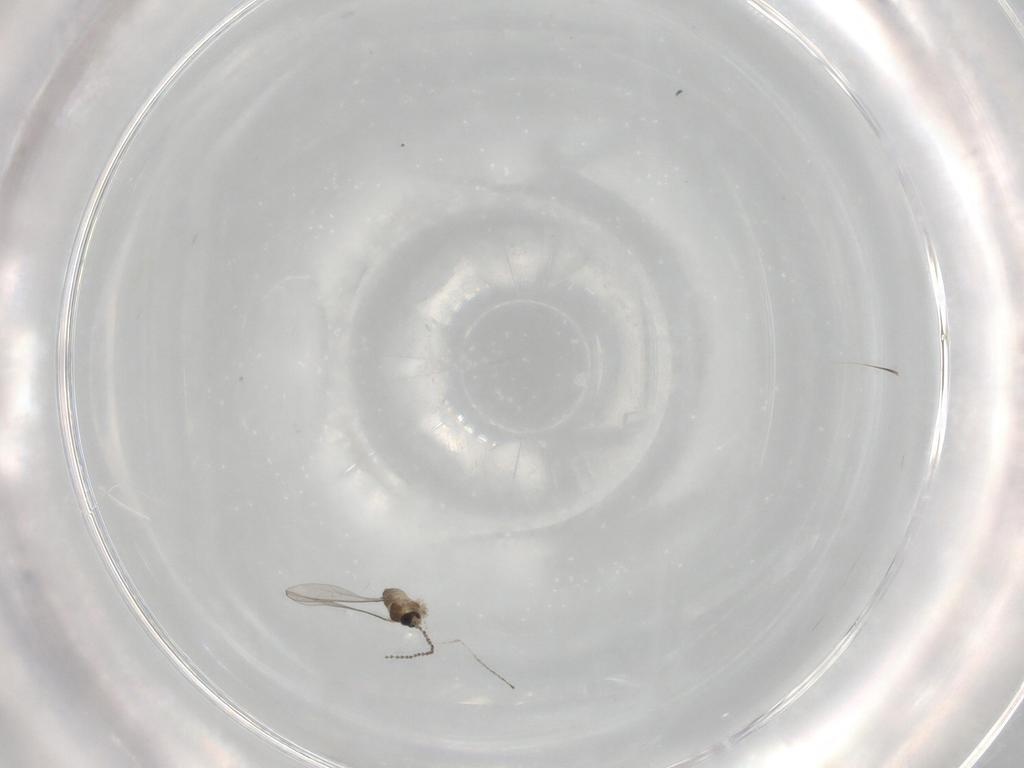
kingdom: Animalia
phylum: Arthropoda
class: Insecta
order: Diptera
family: Cecidomyiidae
